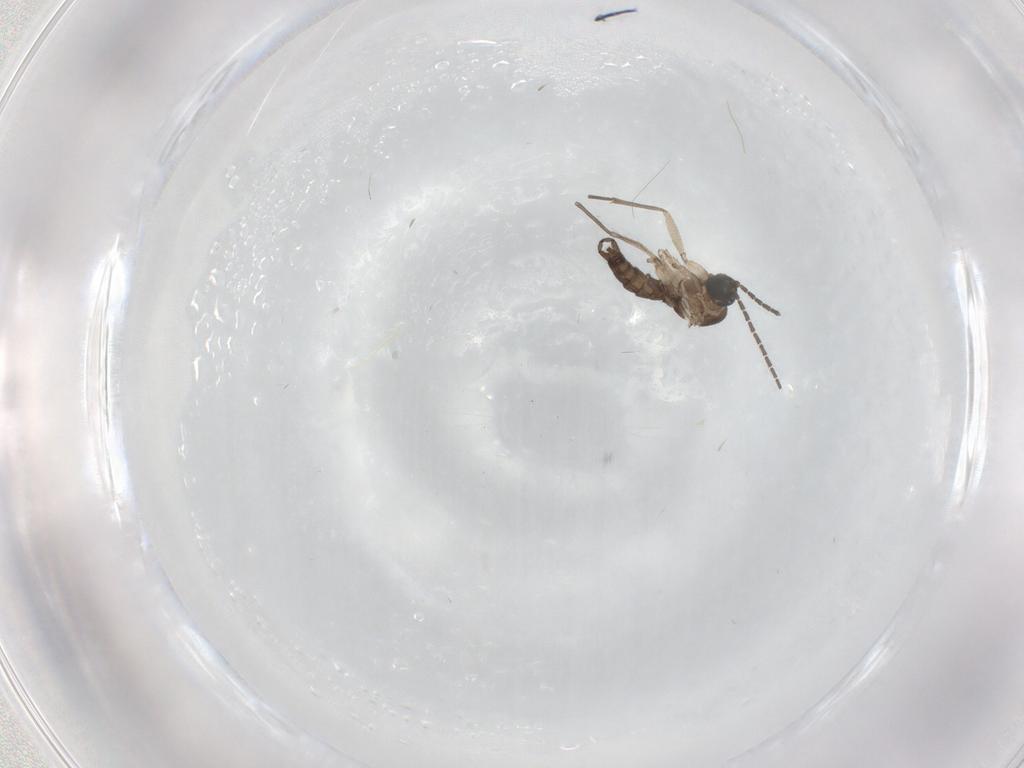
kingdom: Animalia
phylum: Arthropoda
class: Insecta
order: Diptera
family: Sciaridae
